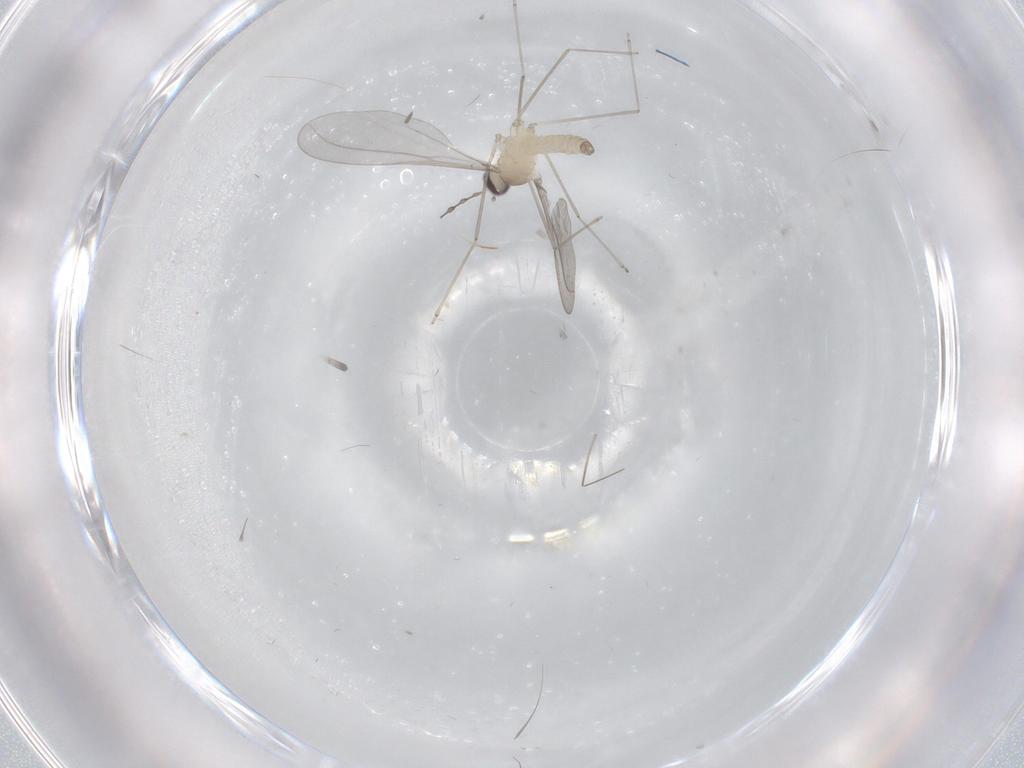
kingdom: Animalia
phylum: Arthropoda
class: Insecta
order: Diptera
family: Cecidomyiidae
